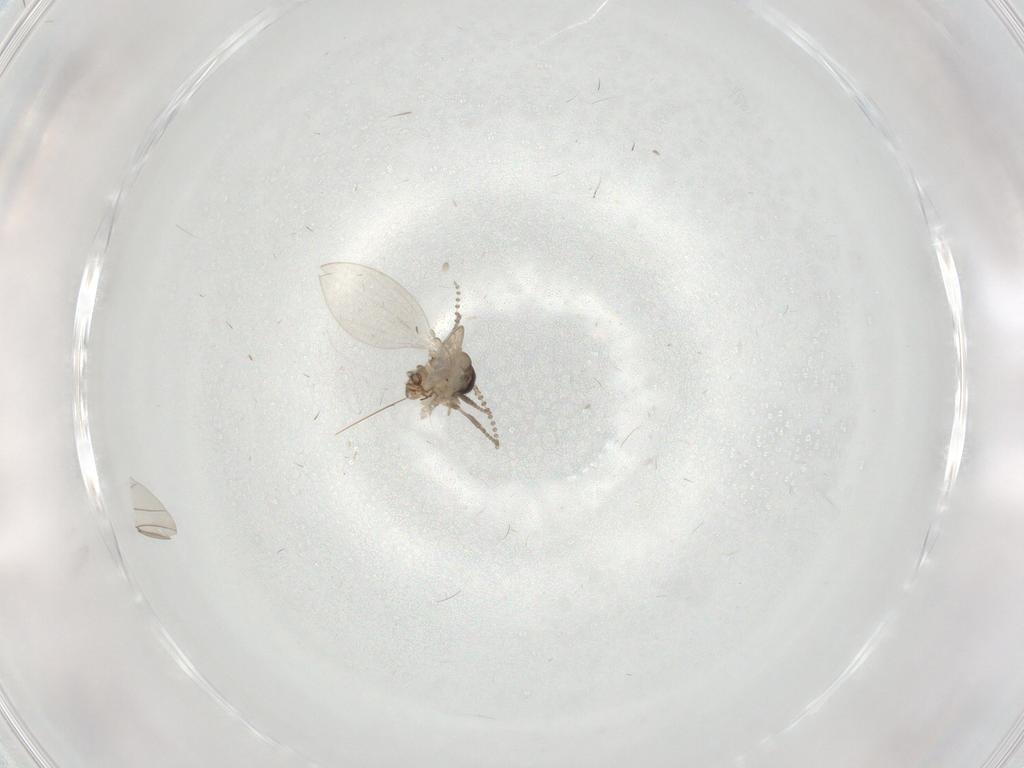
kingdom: Animalia
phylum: Arthropoda
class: Insecta
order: Diptera
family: Psychodidae
